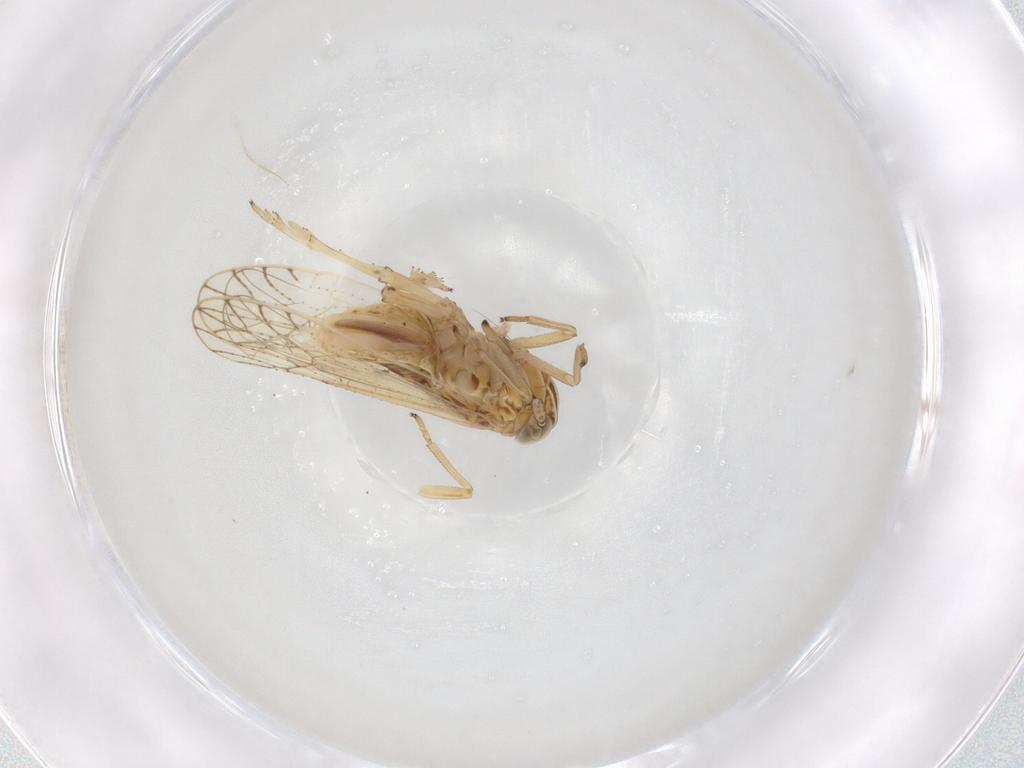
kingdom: Animalia
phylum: Arthropoda
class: Insecta
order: Hemiptera
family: Delphacidae
